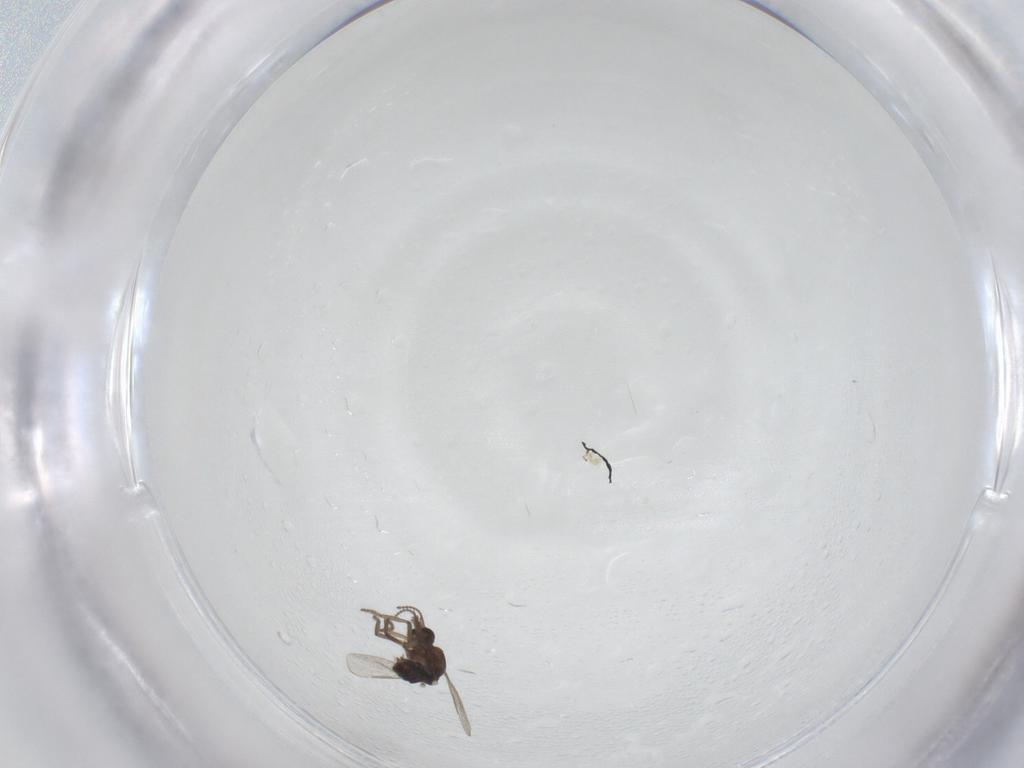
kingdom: Animalia
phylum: Arthropoda
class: Insecta
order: Diptera
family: Ceratopogonidae
